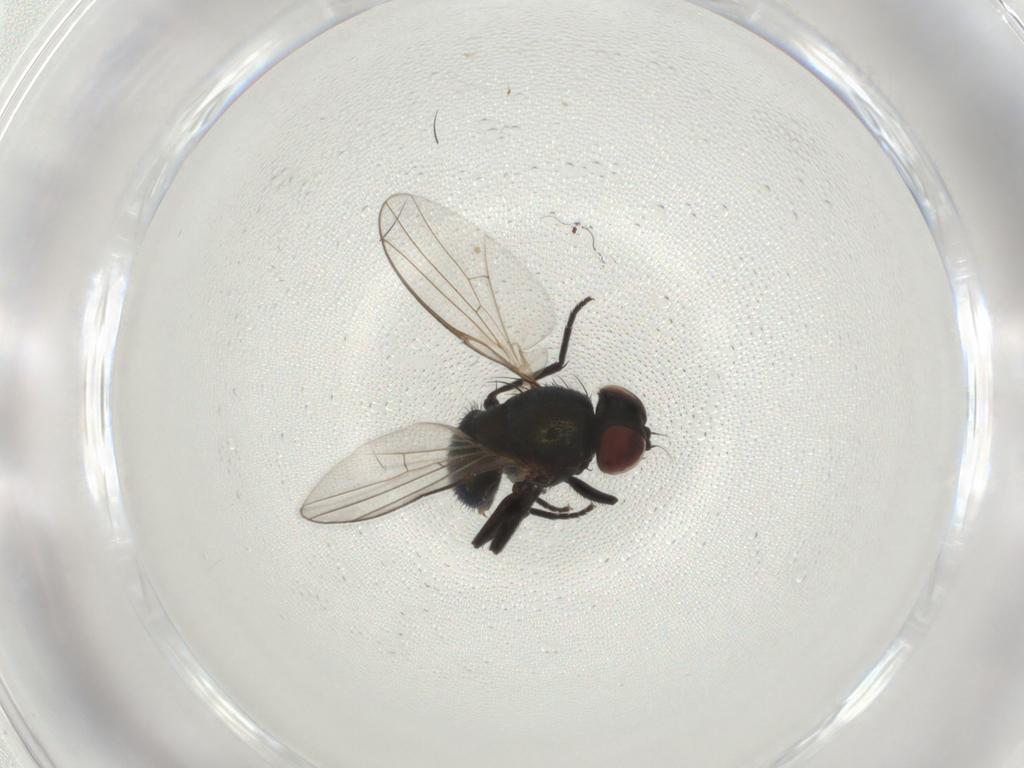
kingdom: Animalia
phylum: Arthropoda
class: Insecta
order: Diptera
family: Agromyzidae
